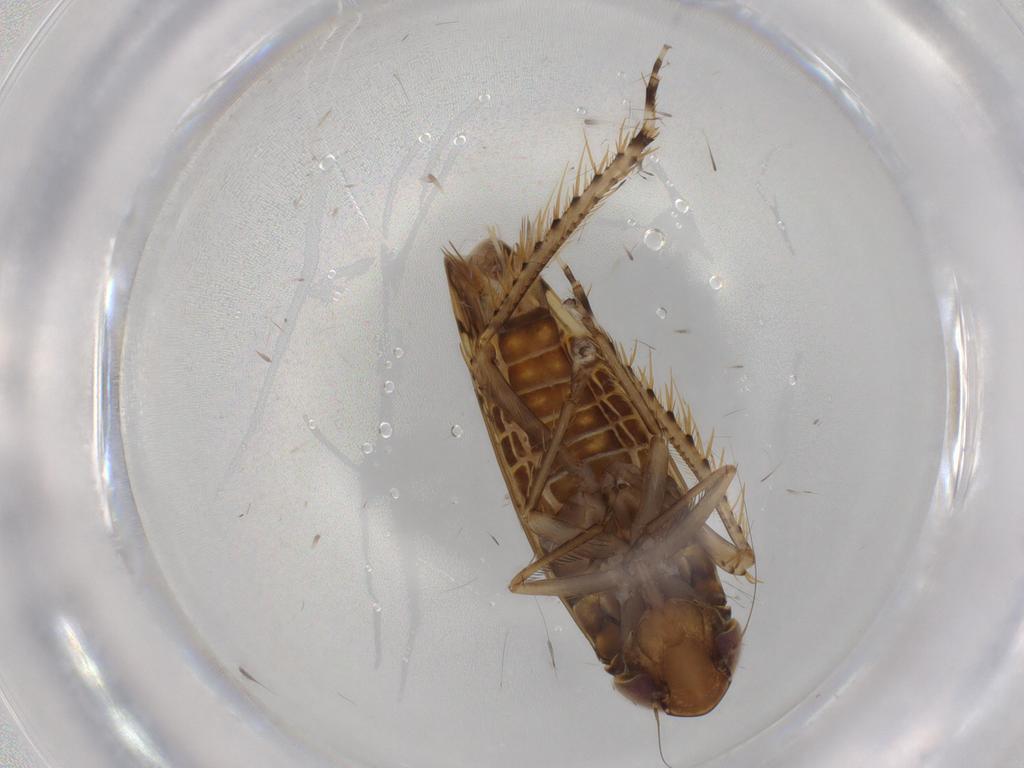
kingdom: Animalia
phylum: Arthropoda
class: Insecta
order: Hemiptera
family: Cicadellidae
